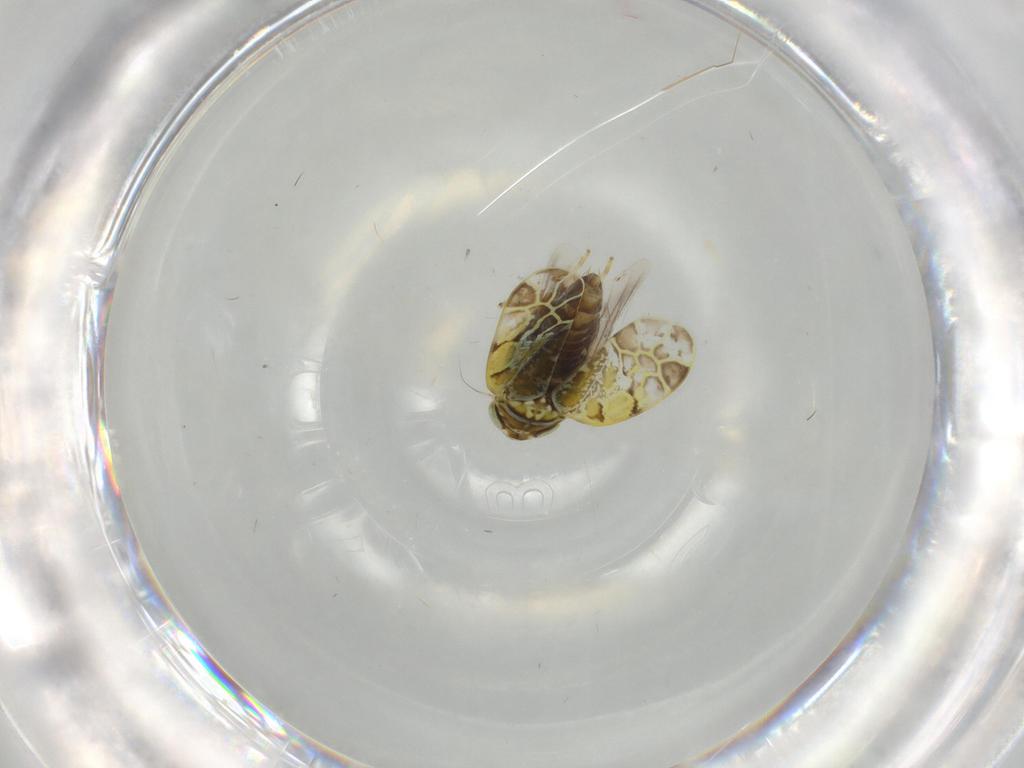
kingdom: Animalia
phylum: Arthropoda
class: Insecta
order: Hemiptera
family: Cicadellidae
